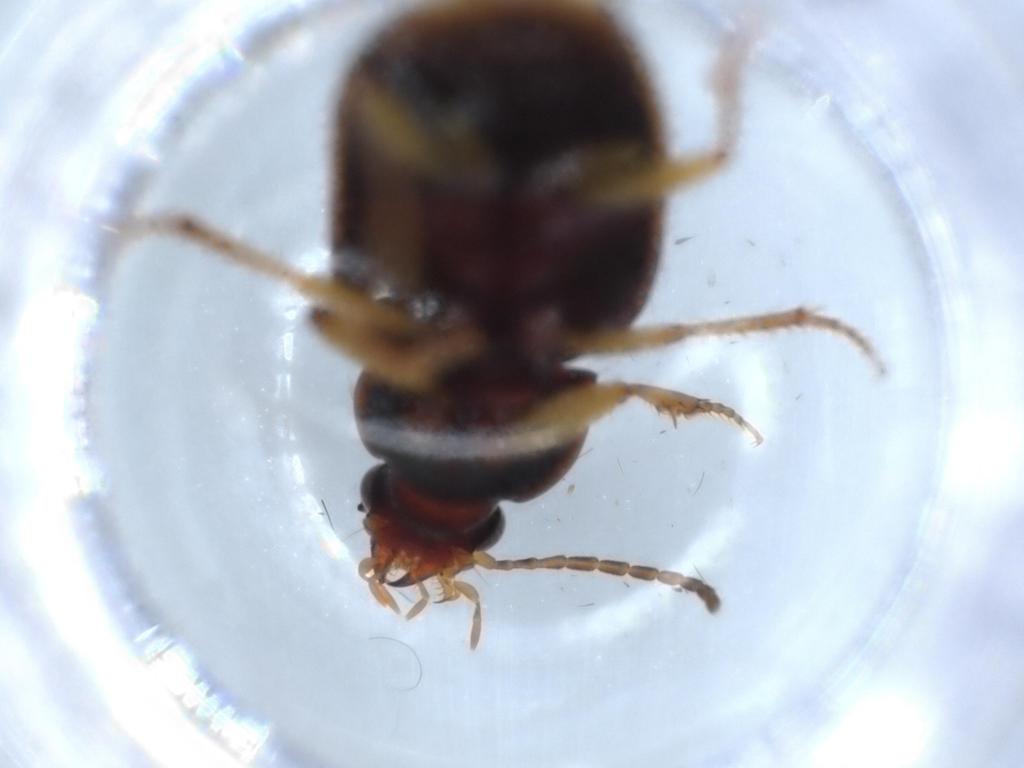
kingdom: Animalia
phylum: Arthropoda
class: Insecta
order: Coleoptera
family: Carabidae
